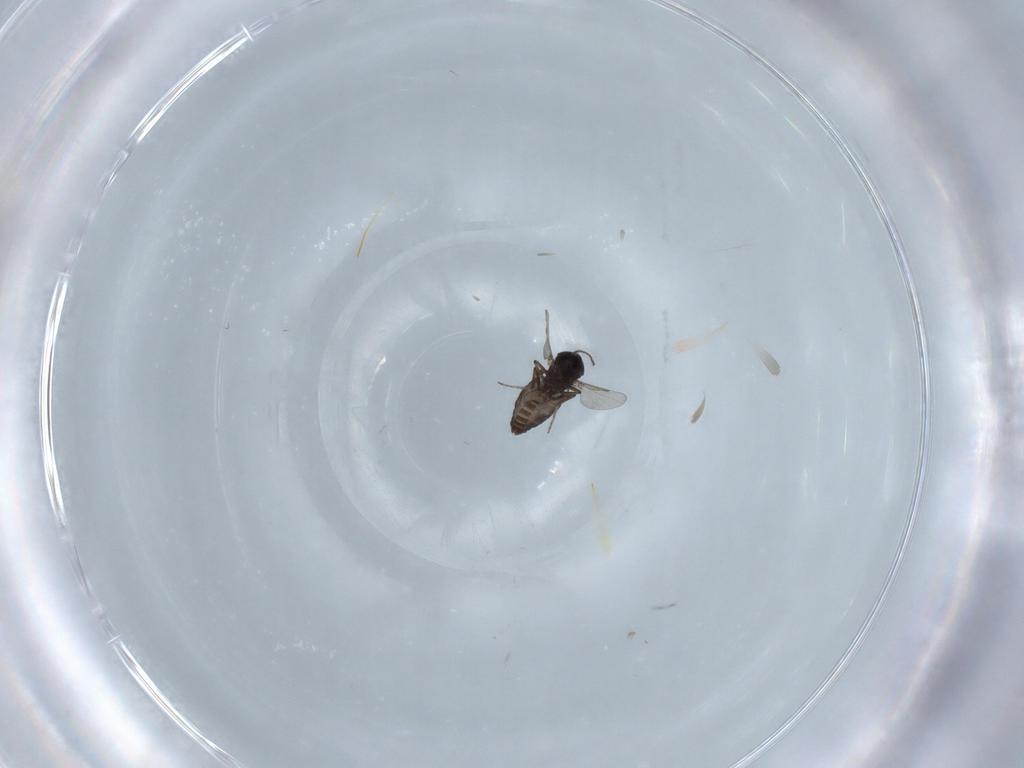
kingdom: Animalia
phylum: Arthropoda
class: Insecta
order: Diptera
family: Ceratopogonidae
